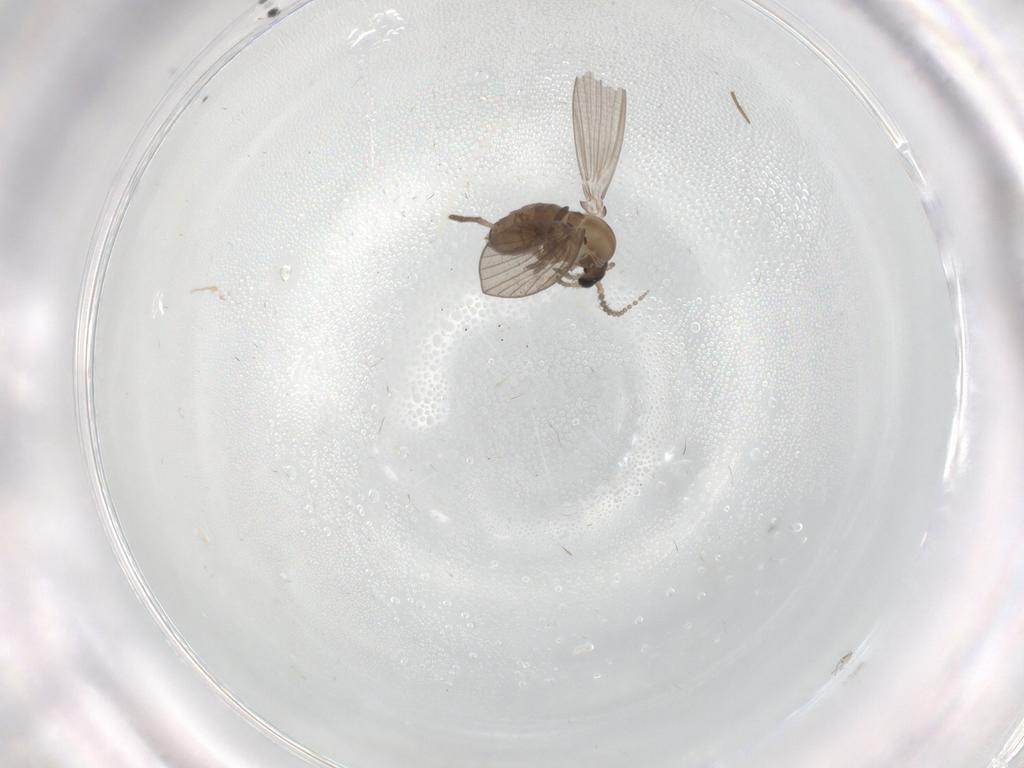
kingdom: Animalia
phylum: Arthropoda
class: Insecta
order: Diptera
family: Psychodidae
